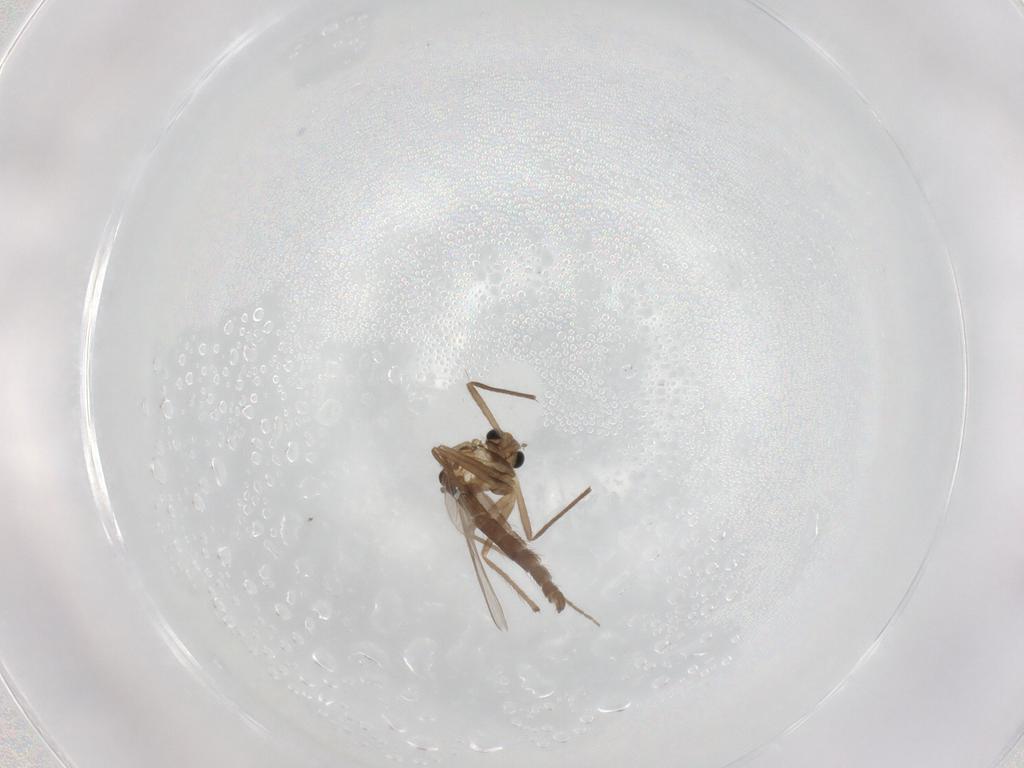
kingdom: Animalia
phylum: Arthropoda
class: Insecta
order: Diptera
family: Chironomidae
